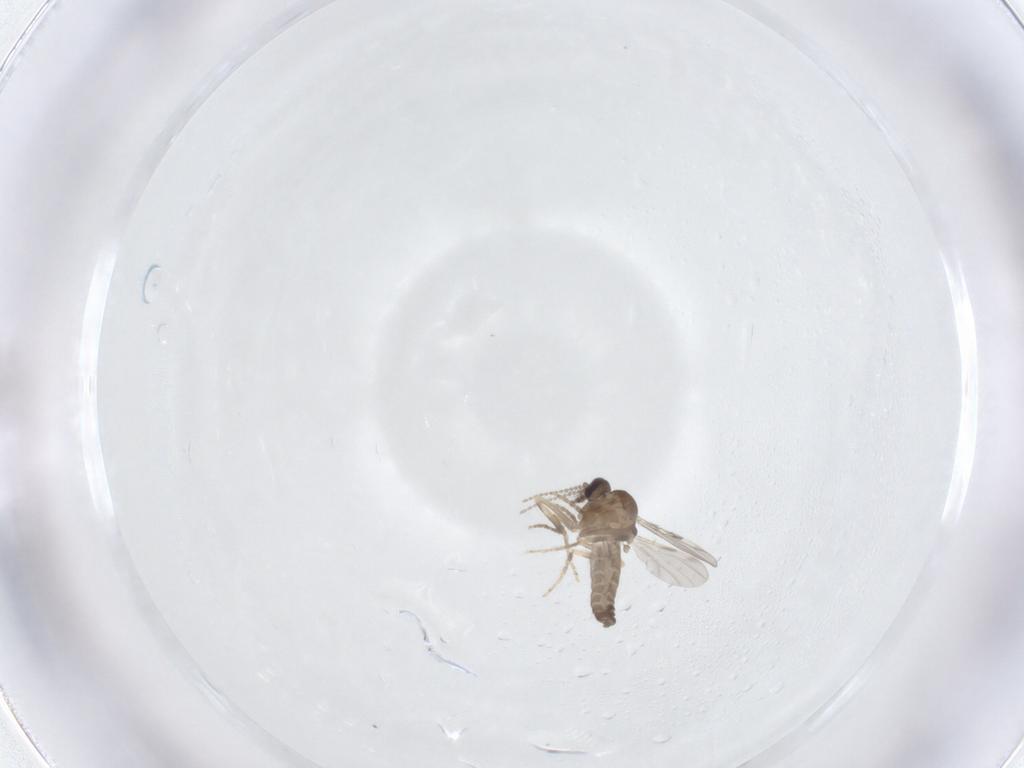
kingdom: Animalia
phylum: Arthropoda
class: Insecta
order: Diptera
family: Ceratopogonidae
